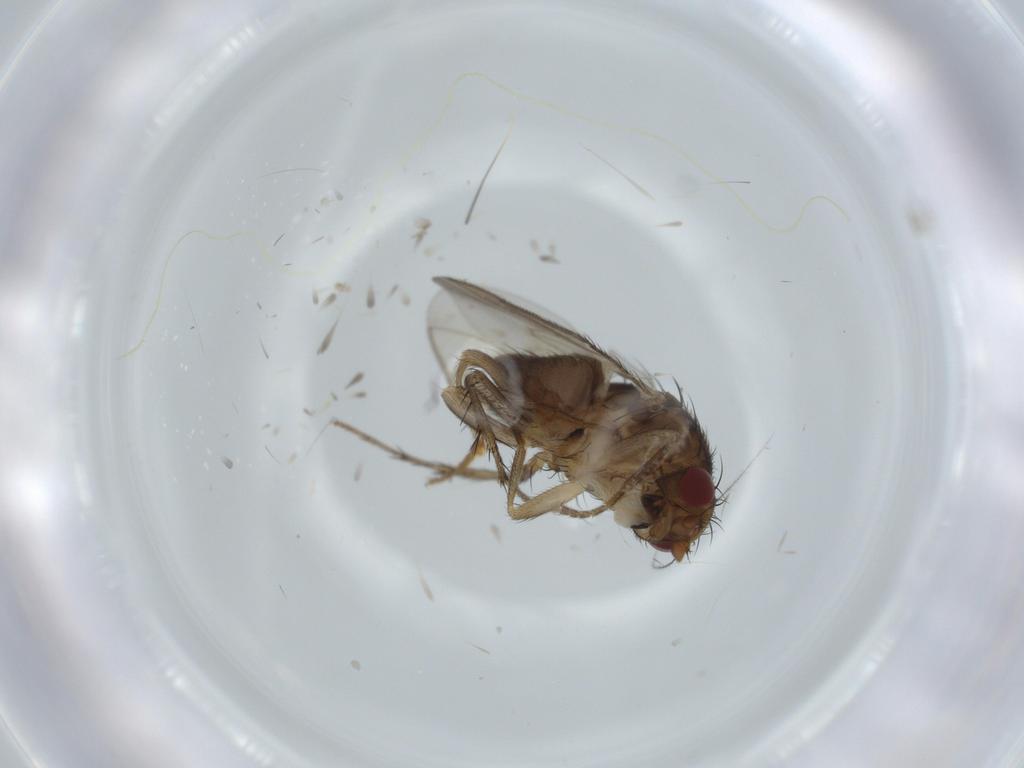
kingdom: Animalia
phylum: Arthropoda
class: Insecta
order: Diptera
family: Sphaeroceridae
